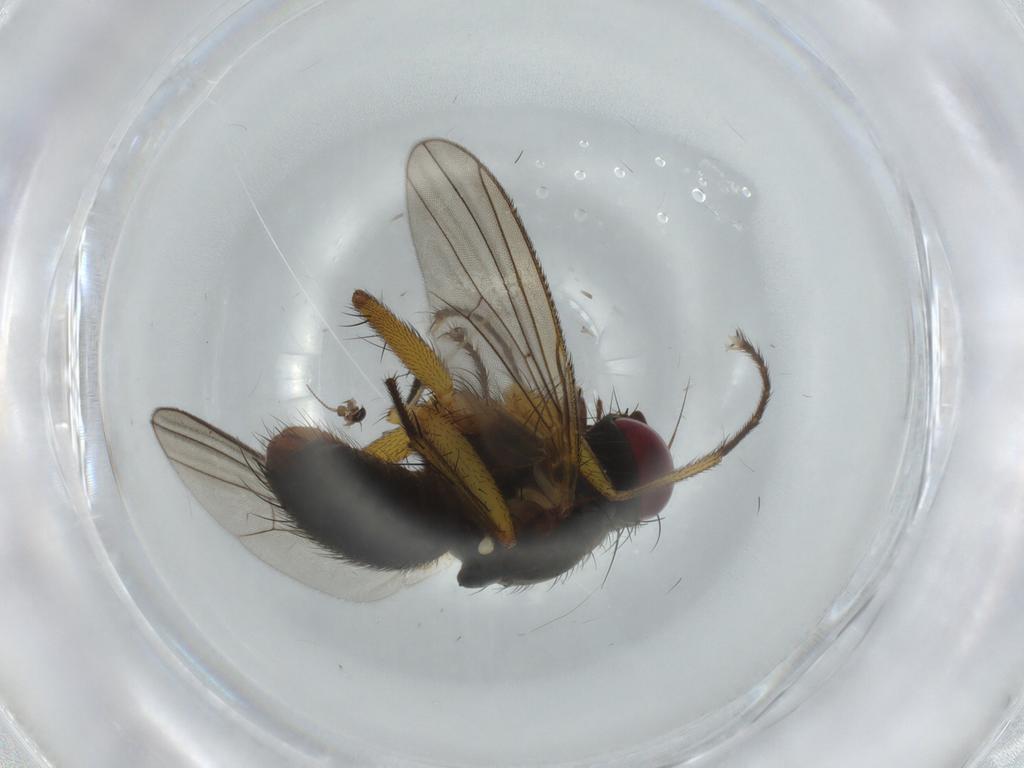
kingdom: Animalia
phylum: Arthropoda
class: Insecta
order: Diptera
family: Muscidae
